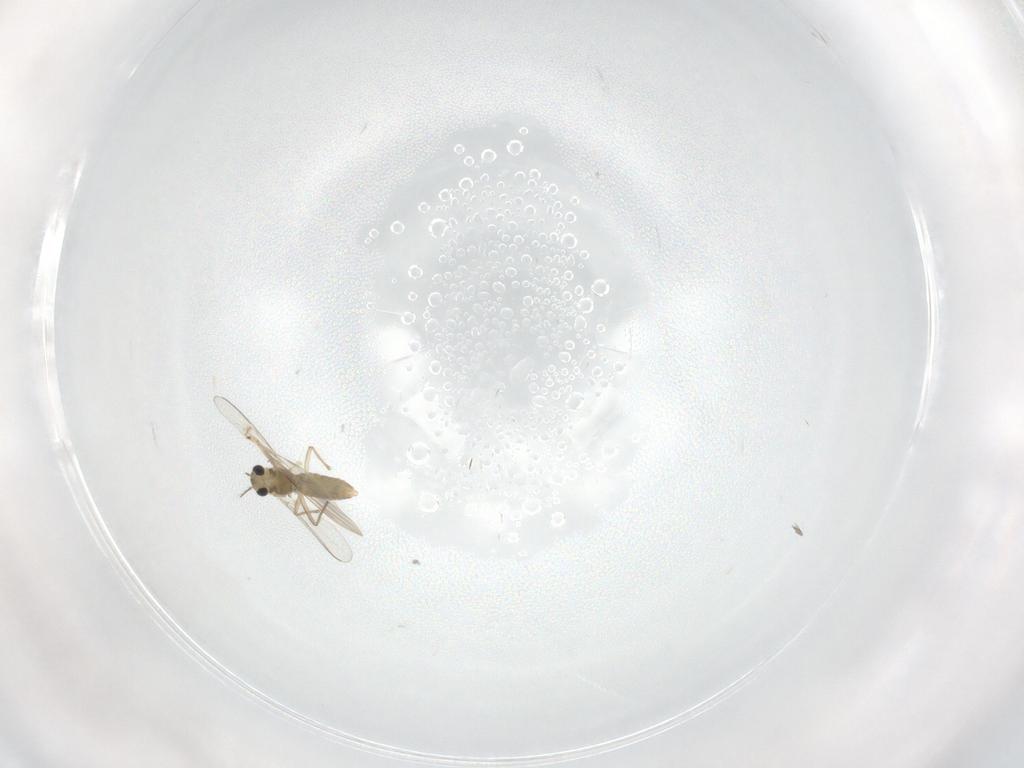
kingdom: Animalia
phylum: Arthropoda
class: Insecta
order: Diptera
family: Chironomidae
